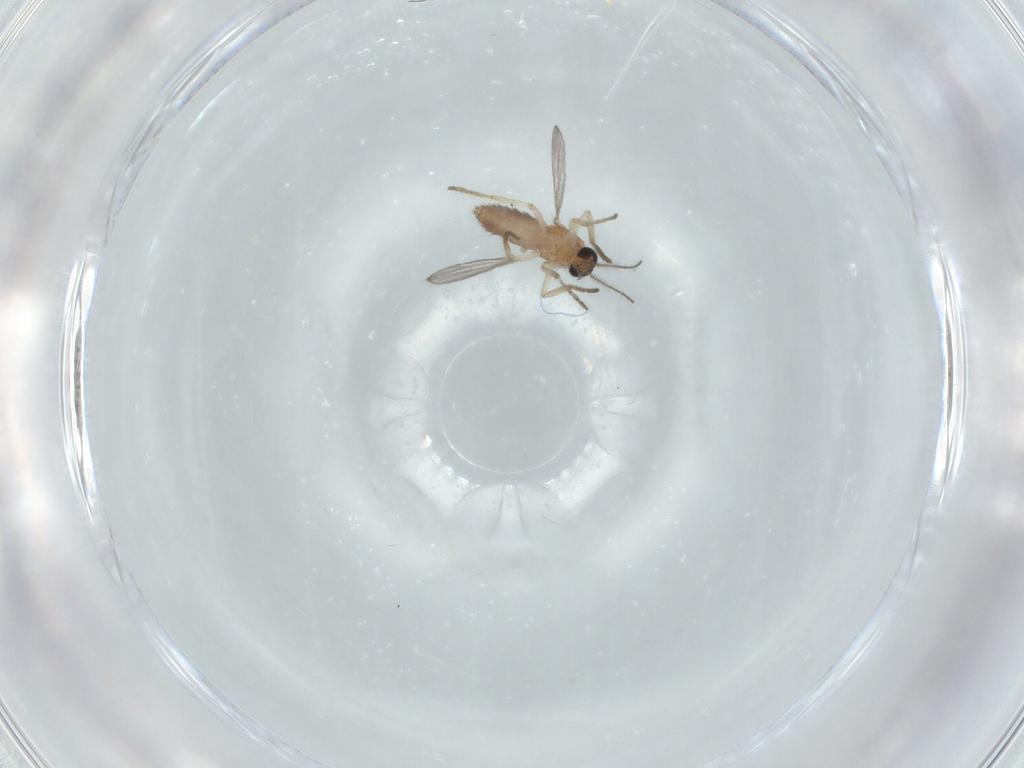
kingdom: Animalia
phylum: Arthropoda
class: Insecta
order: Diptera
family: Ceratopogonidae
